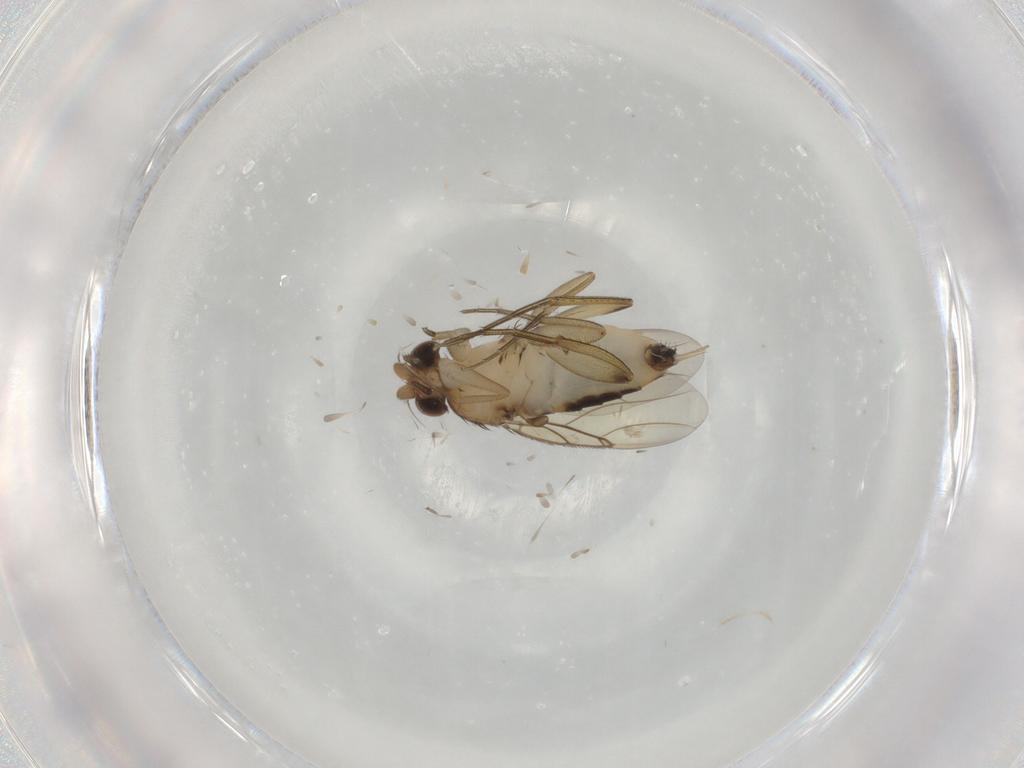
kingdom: Animalia
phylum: Arthropoda
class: Insecta
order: Diptera
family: Phoridae
